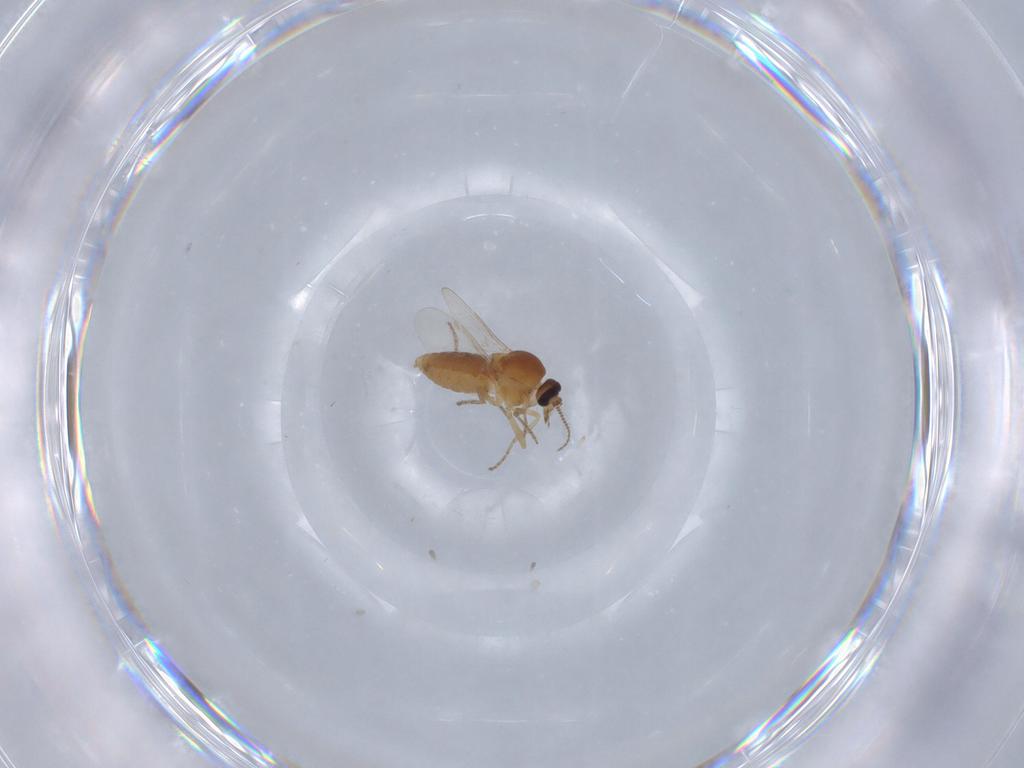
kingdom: Animalia
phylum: Arthropoda
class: Insecta
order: Diptera
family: Ceratopogonidae
